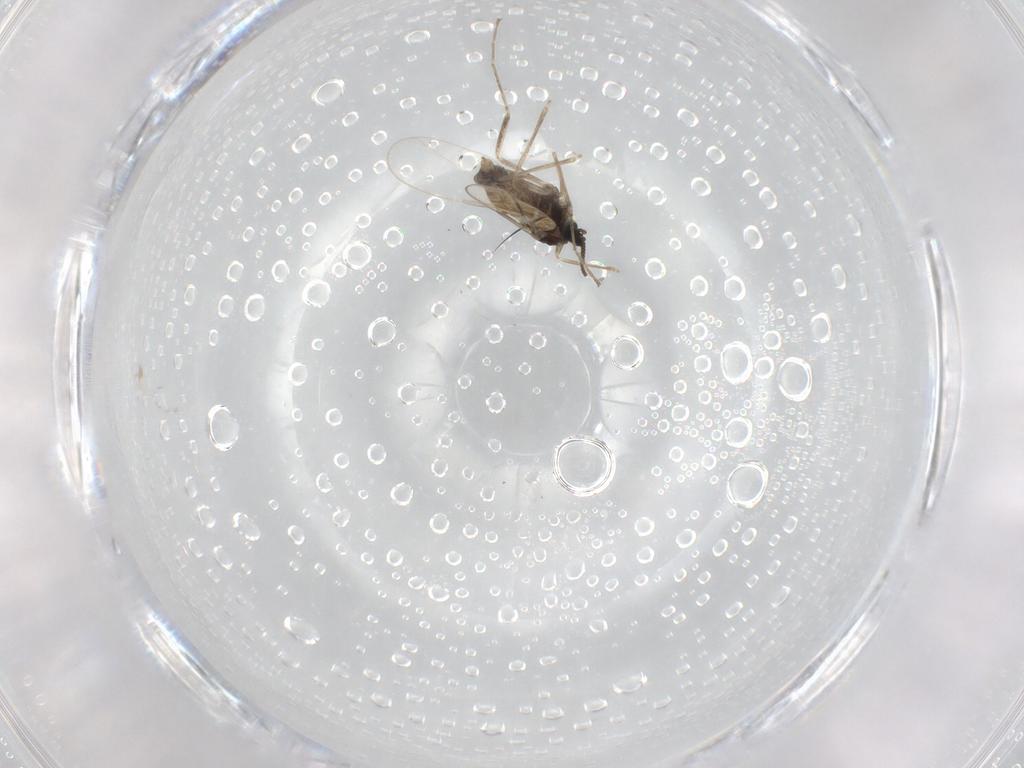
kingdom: Animalia
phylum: Arthropoda
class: Insecta
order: Diptera
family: Cecidomyiidae
